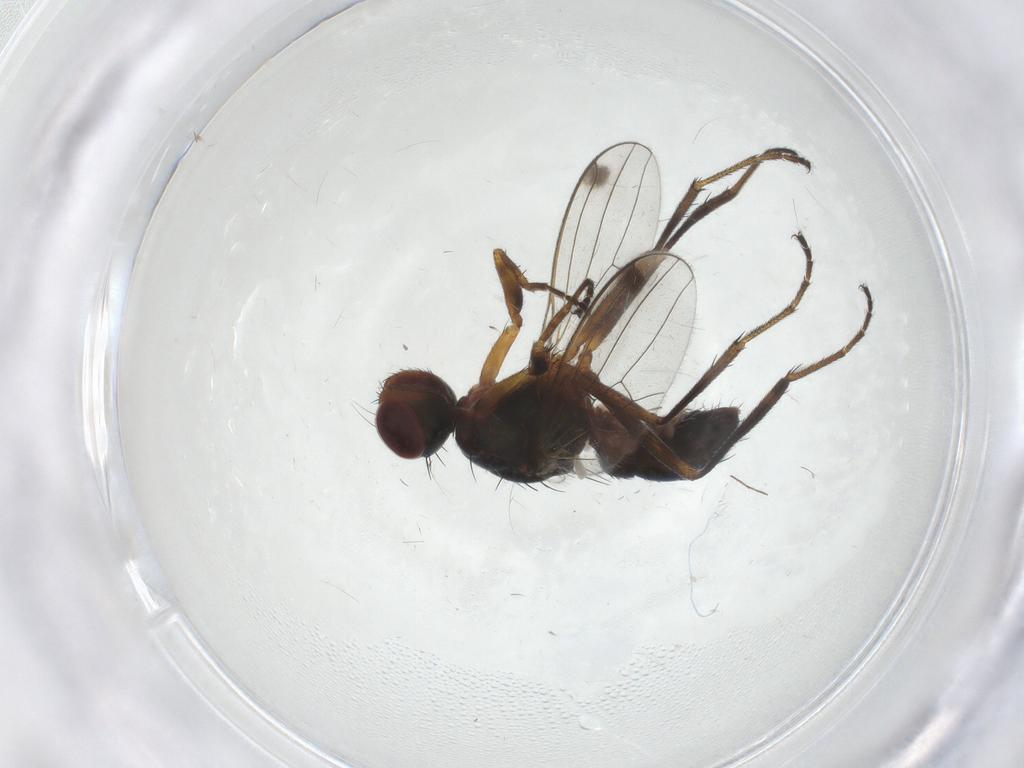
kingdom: Animalia
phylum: Arthropoda
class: Insecta
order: Diptera
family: Sepsidae
